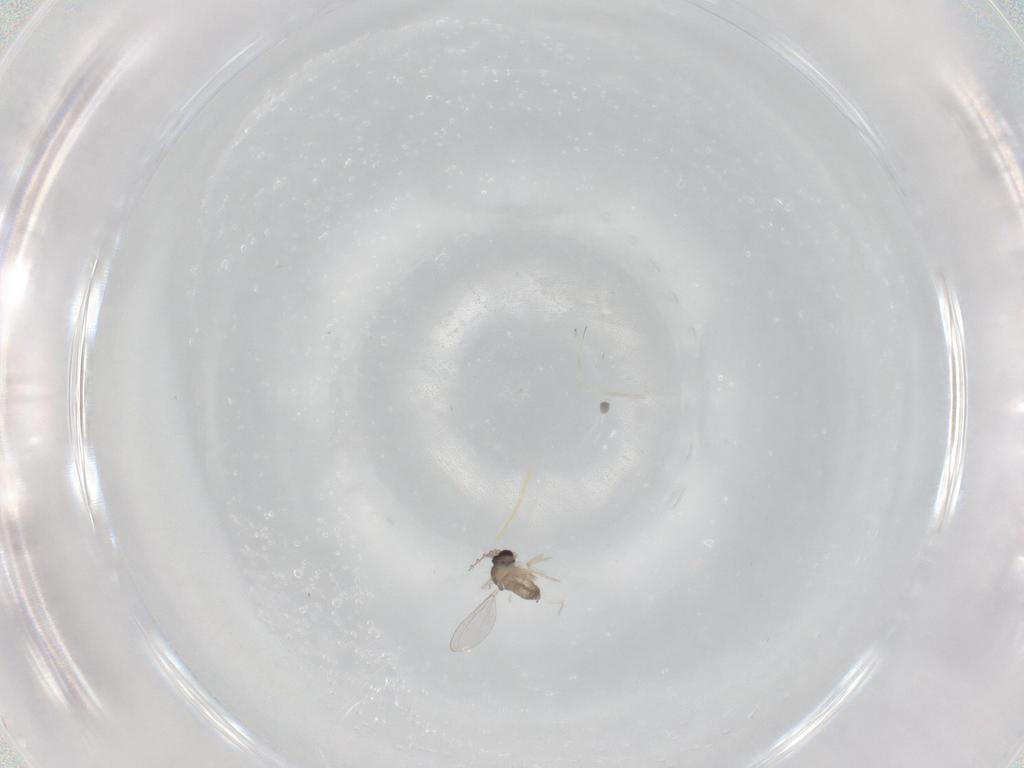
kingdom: Animalia
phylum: Arthropoda
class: Insecta
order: Diptera
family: Cecidomyiidae
